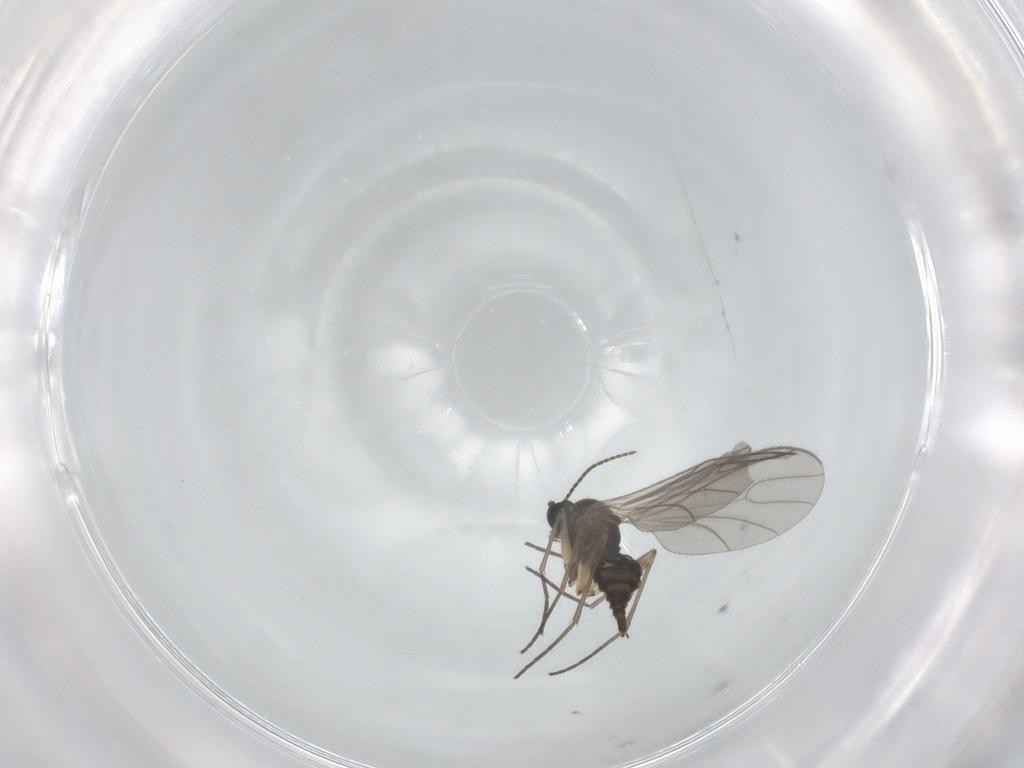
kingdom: Animalia
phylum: Arthropoda
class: Insecta
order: Diptera
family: Sciaridae
